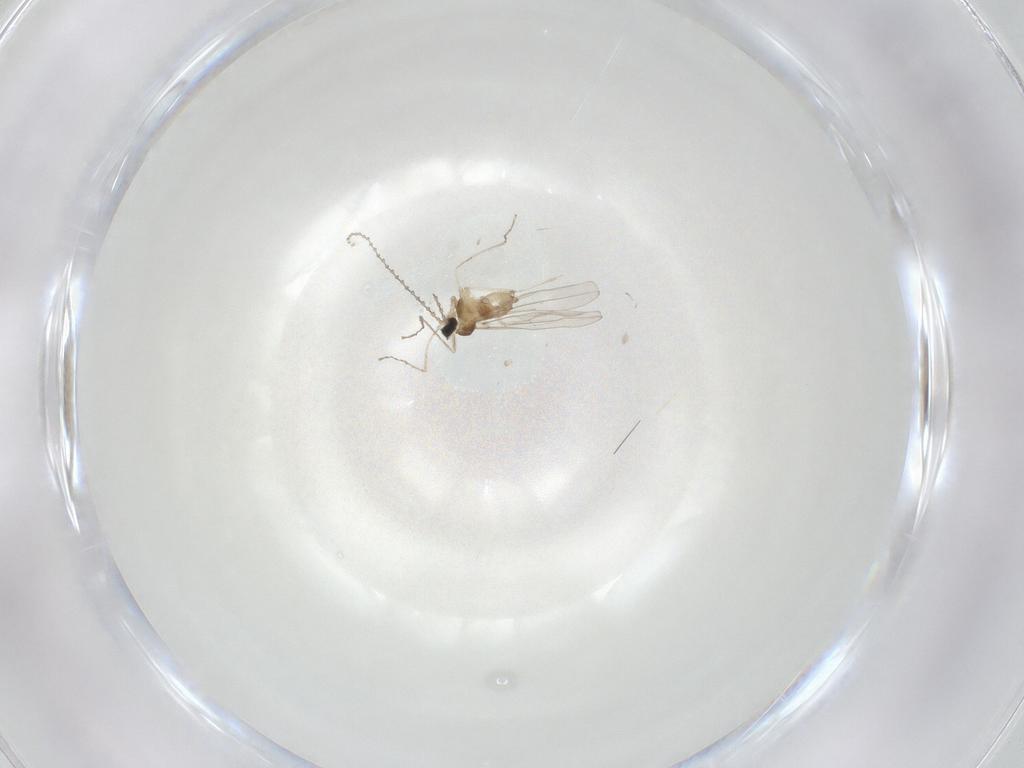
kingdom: Animalia
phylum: Arthropoda
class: Insecta
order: Diptera
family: Cecidomyiidae
